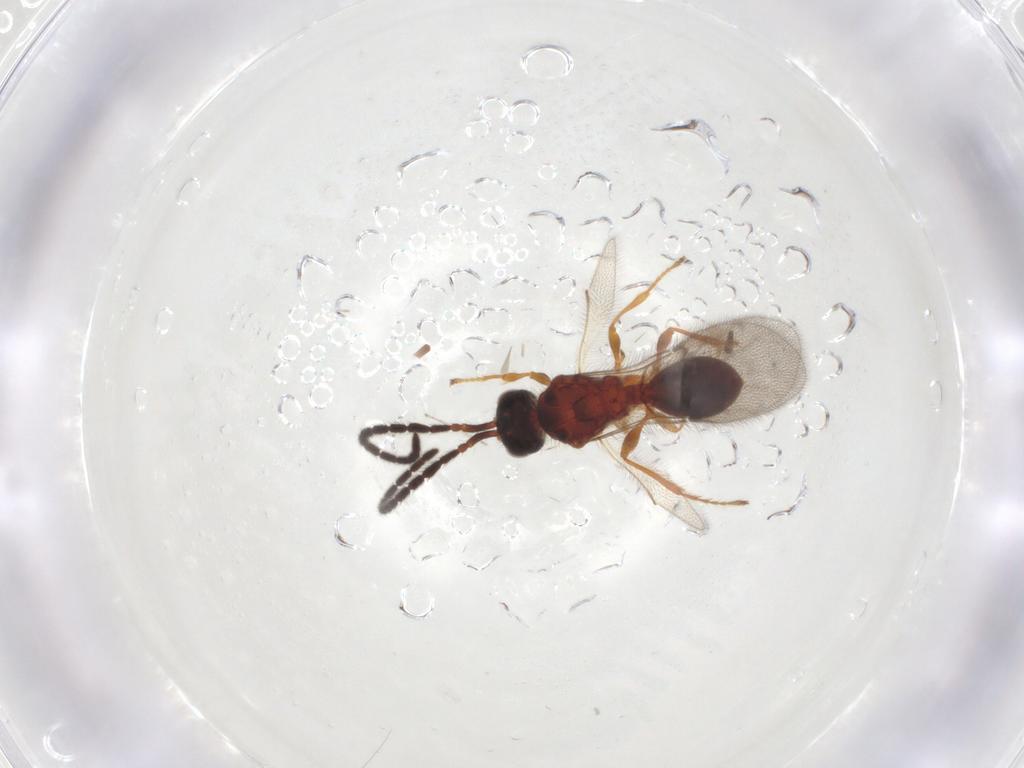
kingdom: Animalia
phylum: Arthropoda
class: Insecta
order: Hymenoptera
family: Diapriidae
